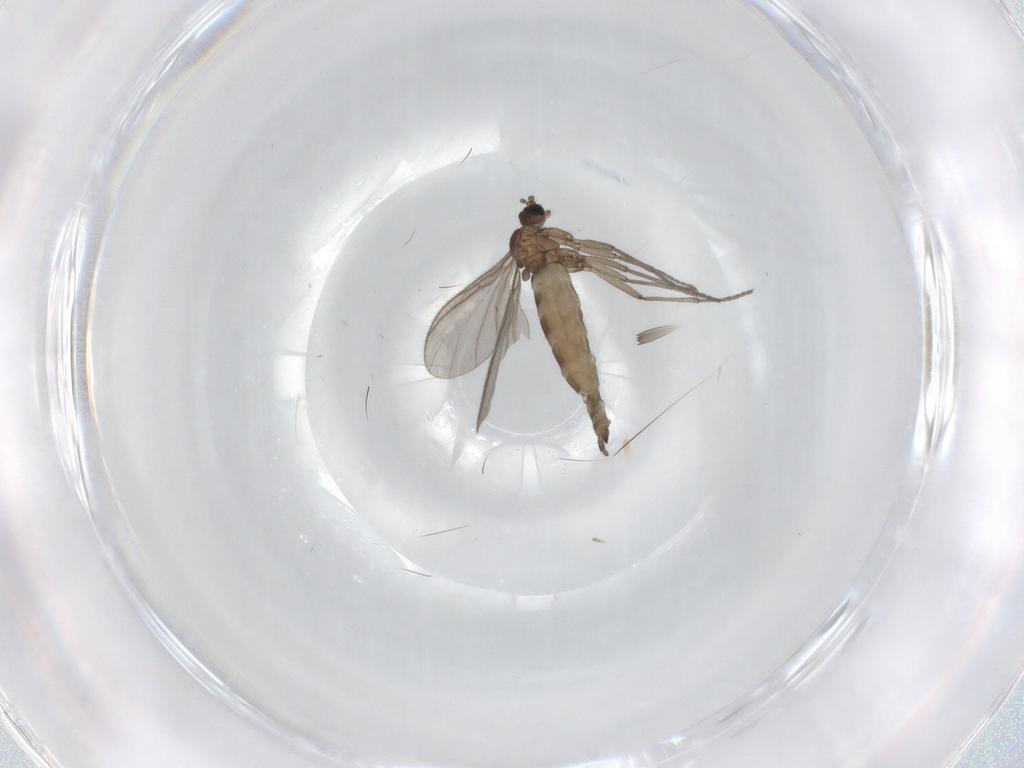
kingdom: Animalia
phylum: Arthropoda
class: Insecta
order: Diptera
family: Sciaridae
